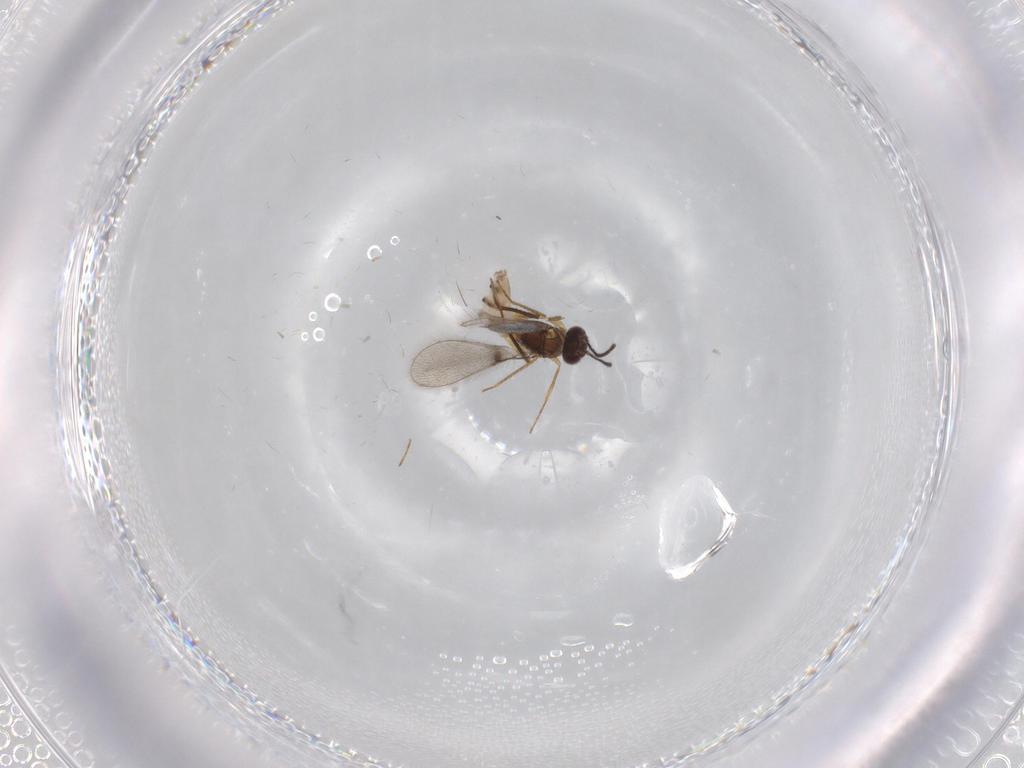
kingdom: Animalia
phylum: Arthropoda
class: Insecta
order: Hymenoptera
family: Mymaridae
